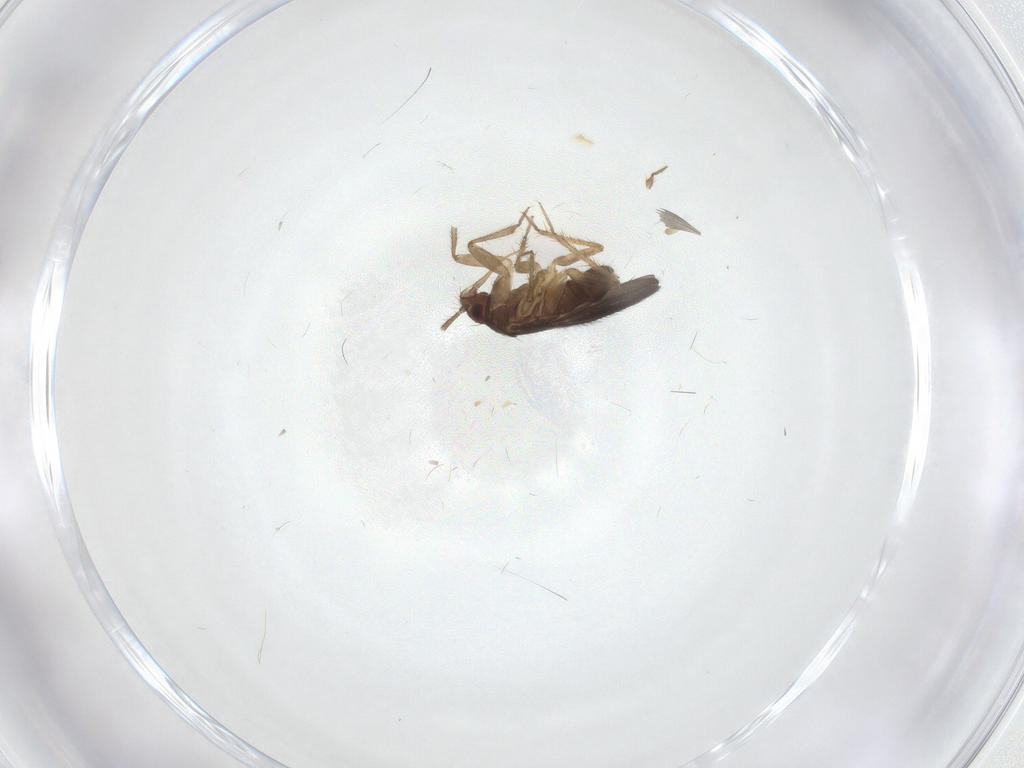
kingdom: Animalia
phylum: Arthropoda
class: Insecta
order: Hemiptera
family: Ceratocombidae
